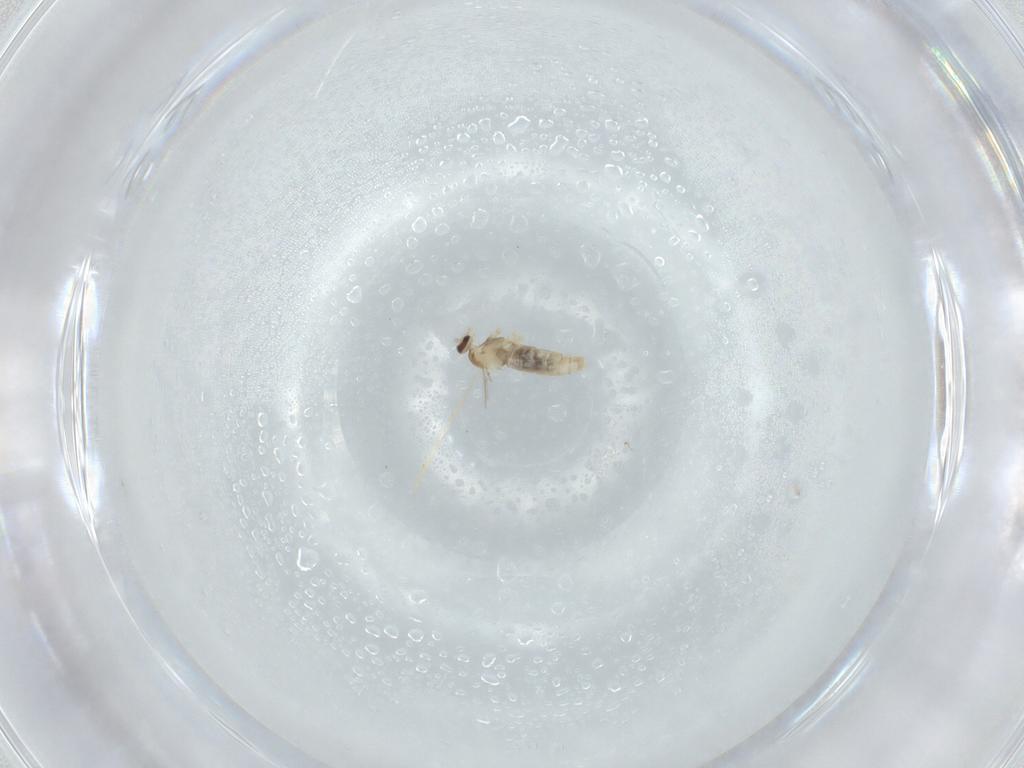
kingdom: Animalia
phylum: Arthropoda
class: Insecta
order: Diptera
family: Cecidomyiidae
